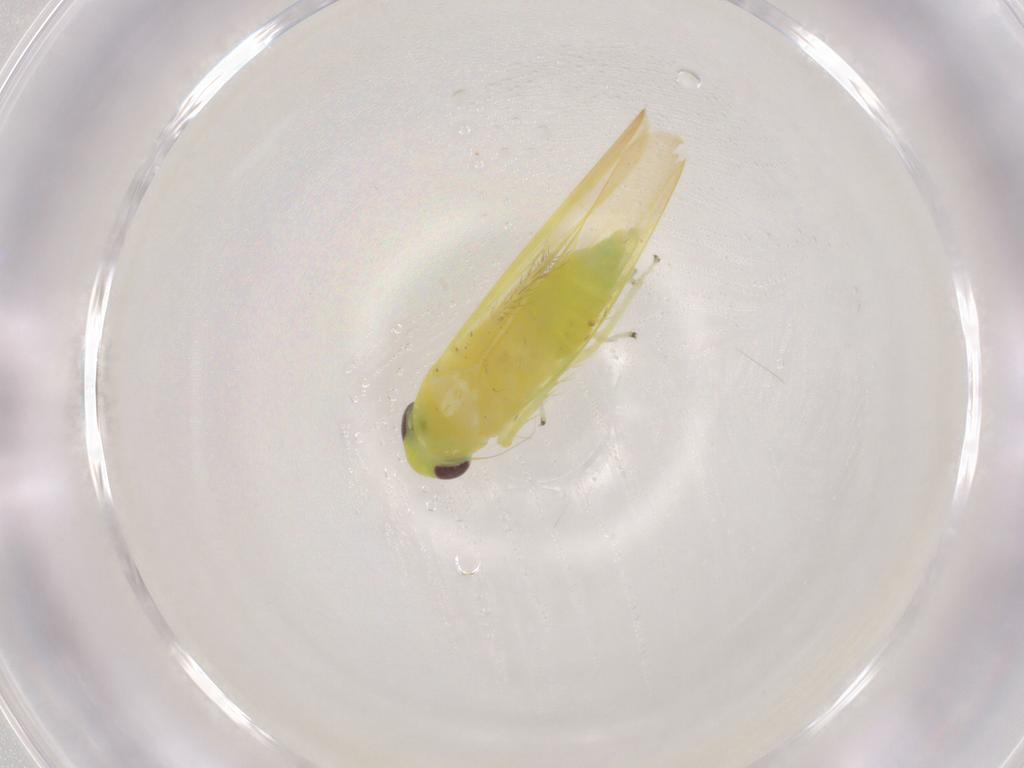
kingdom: Animalia
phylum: Arthropoda
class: Insecta
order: Hemiptera
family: Cicadellidae
